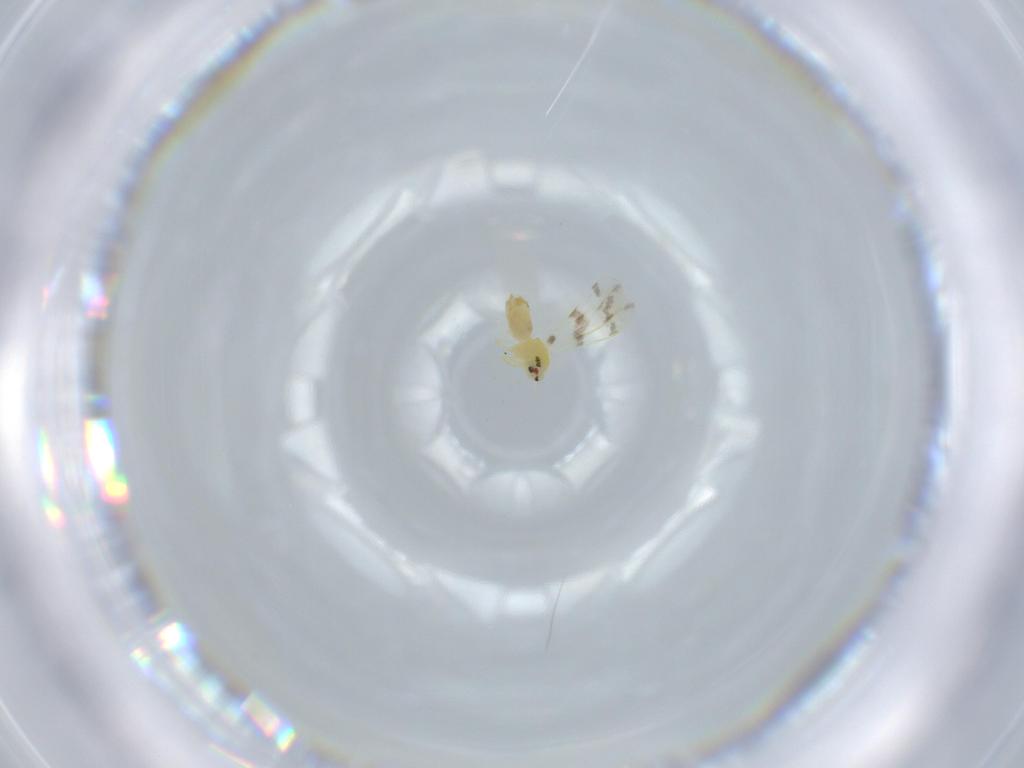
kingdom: Animalia
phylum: Arthropoda
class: Insecta
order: Hemiptera
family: Aleyrodidae
